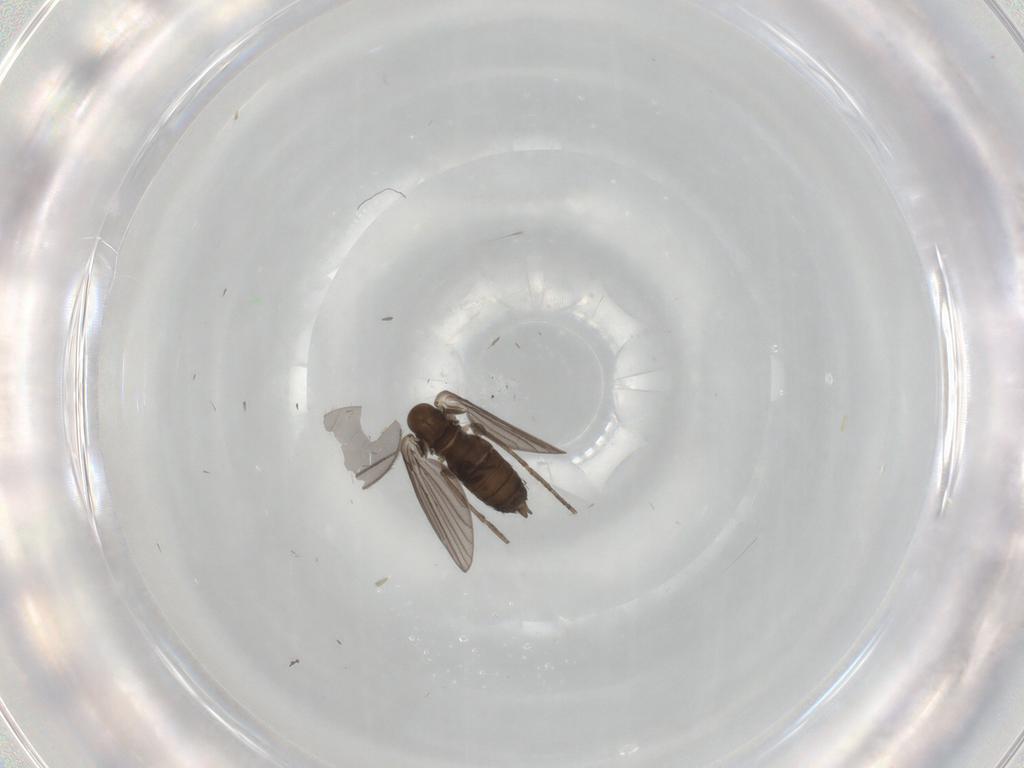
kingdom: Animalia
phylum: Arthropoda
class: Insecta
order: Diptera
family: Psychodidae
